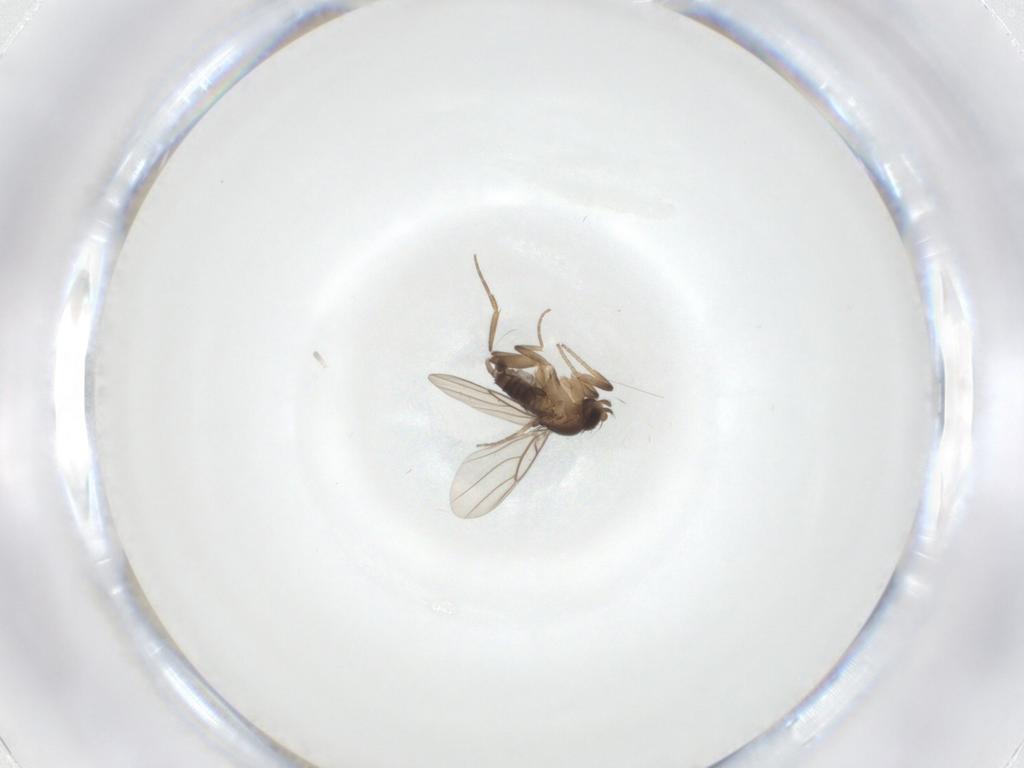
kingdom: Animalia
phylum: Arthropoda
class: Insecta
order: Diptera
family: Phoridae
